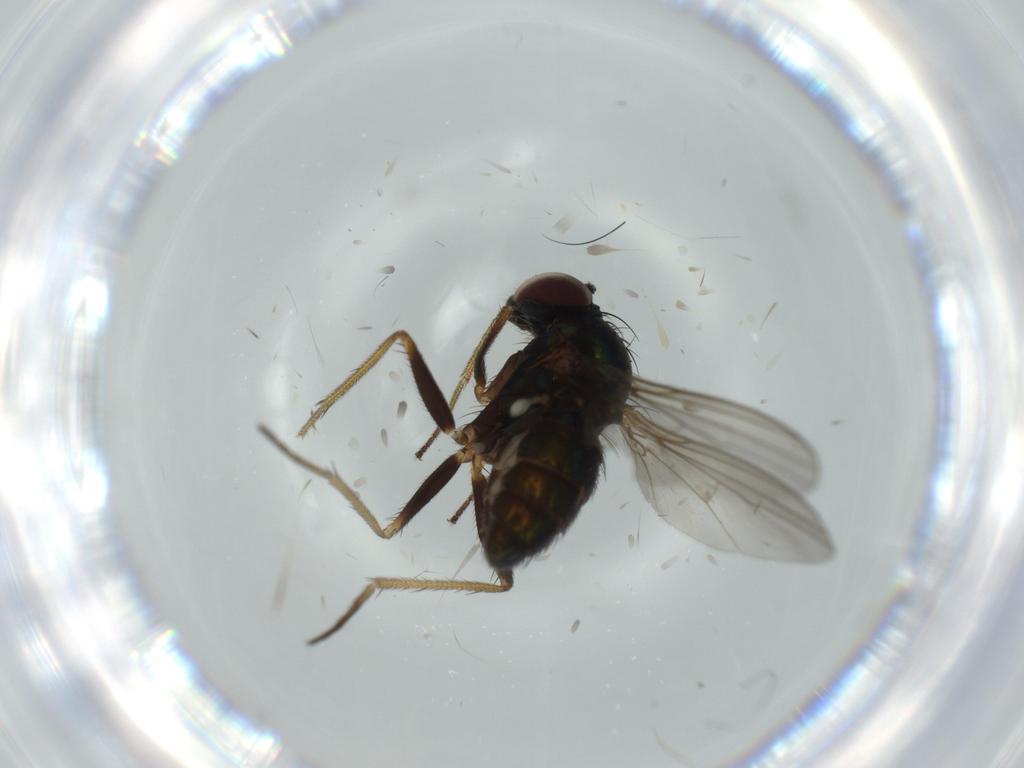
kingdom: Animalia
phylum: Arthropoda
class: Insecta
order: Diptera
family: Dolichopodidae
